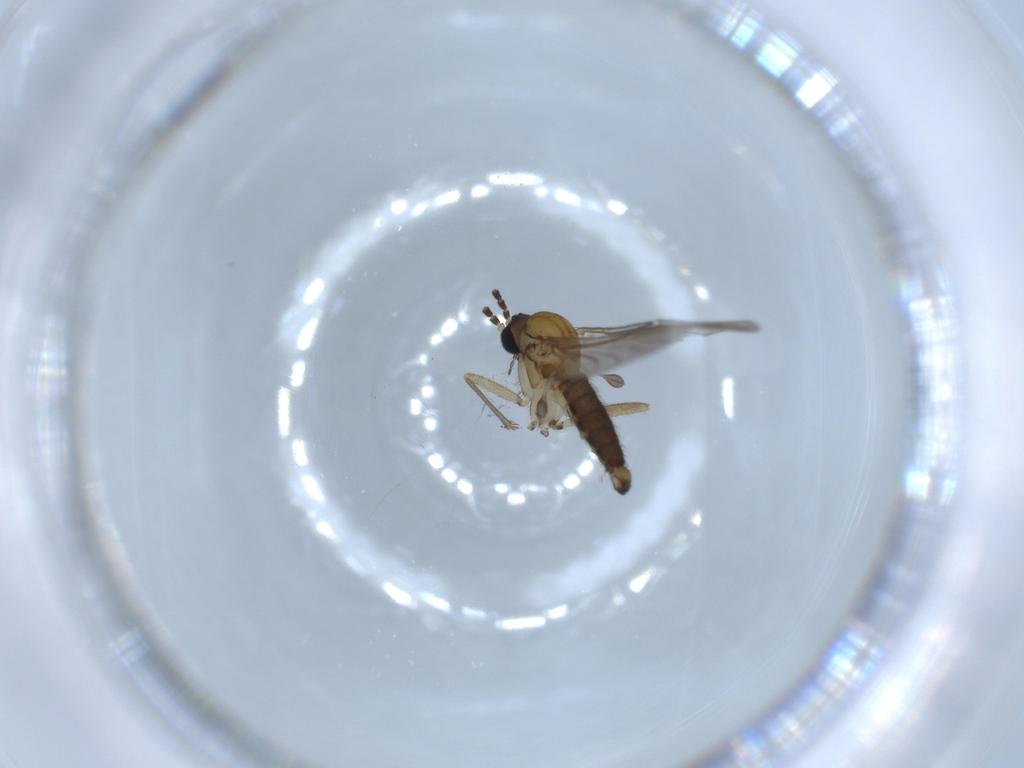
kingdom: Animalia
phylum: Arthropoda
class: Insecta
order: Diptera
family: Sciaridae
